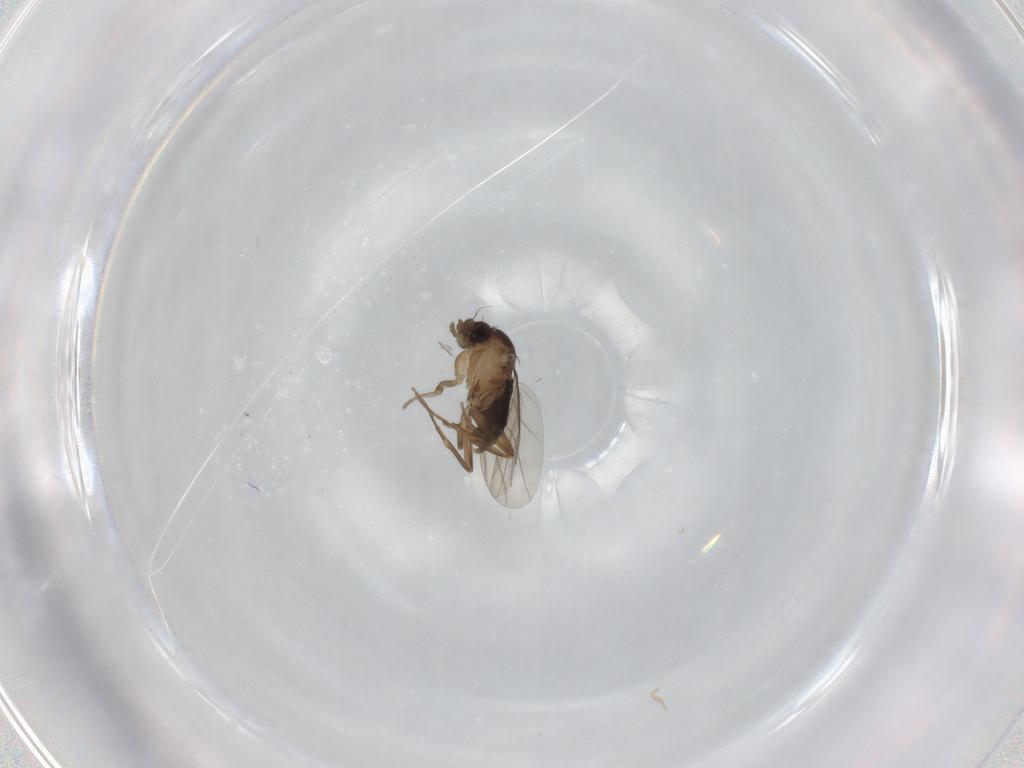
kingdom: Animalia
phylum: Arthropoda
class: Insecta
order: Diptera
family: Phoridae
